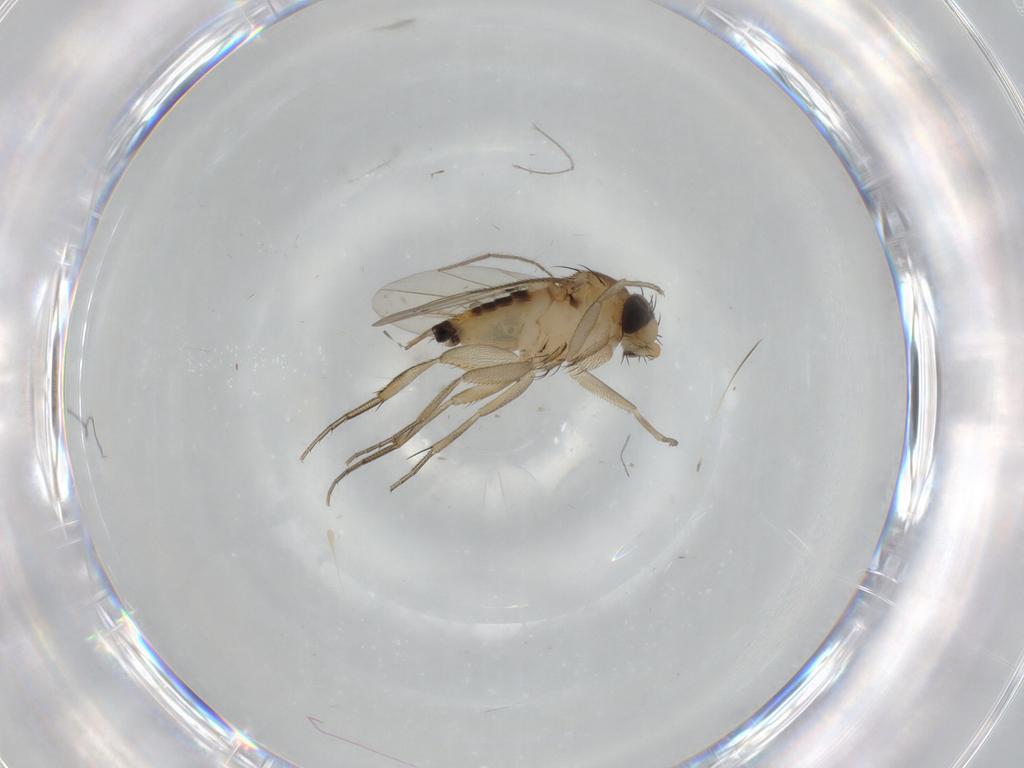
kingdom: Animalia
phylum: Arthropoda
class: Insecta
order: Diptera
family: Phoridae
